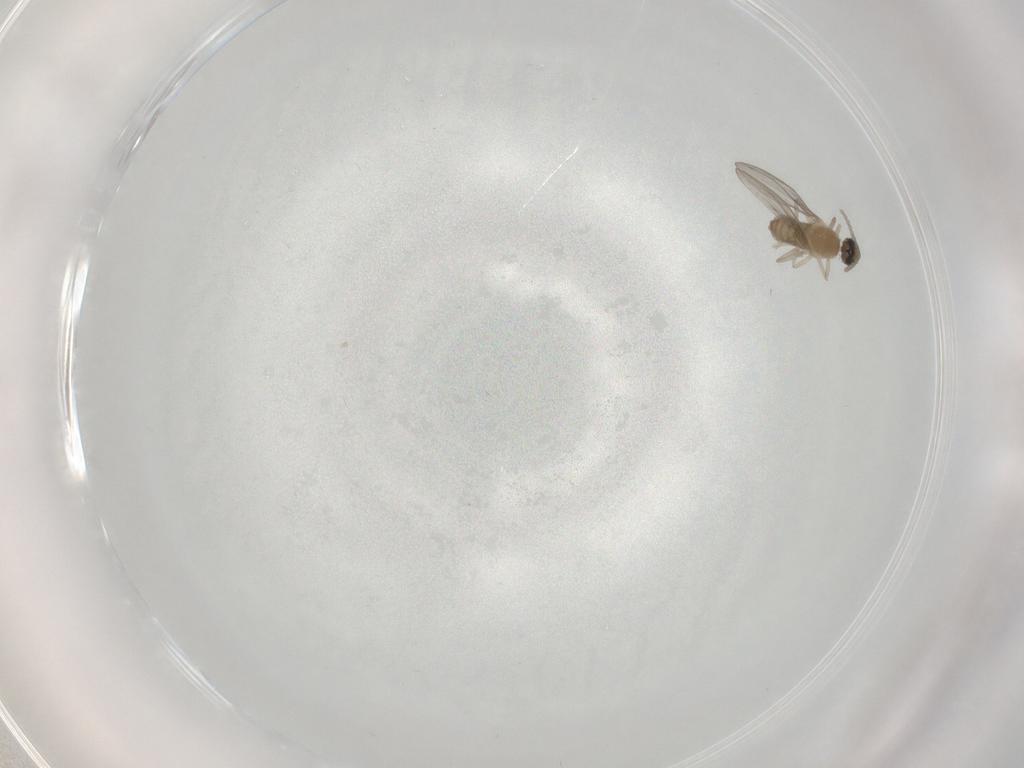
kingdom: Animalia
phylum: Arthropoda
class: Insecta
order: Diptera
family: Cecidomyiidae
